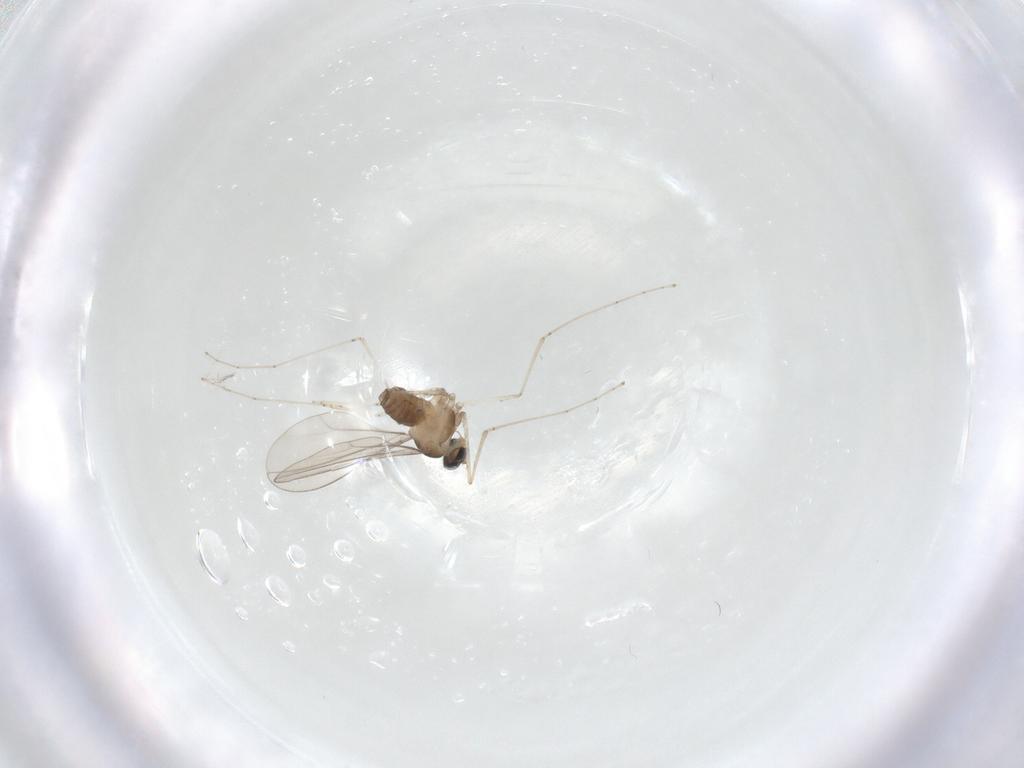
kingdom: Animalia
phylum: Arthropoda
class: Insecta
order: Diptera
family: Cecidomyiidae
